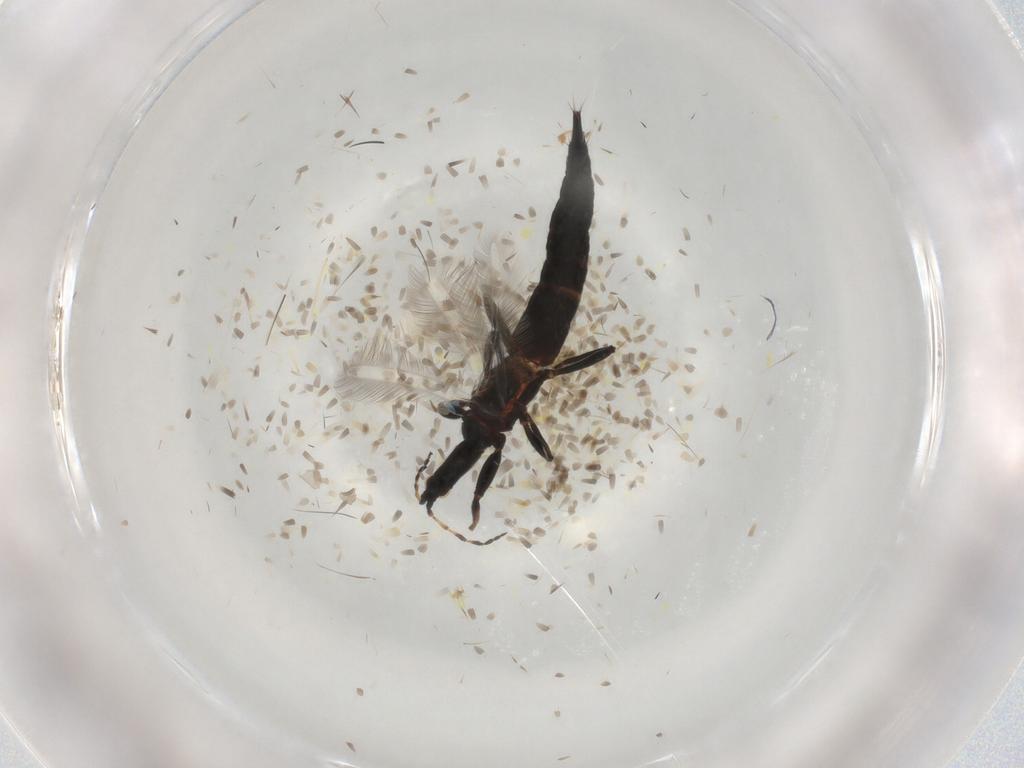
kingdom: Animalia
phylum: Arthropoda
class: Insecta
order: Thysanoptera
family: Phlaeothripidae
